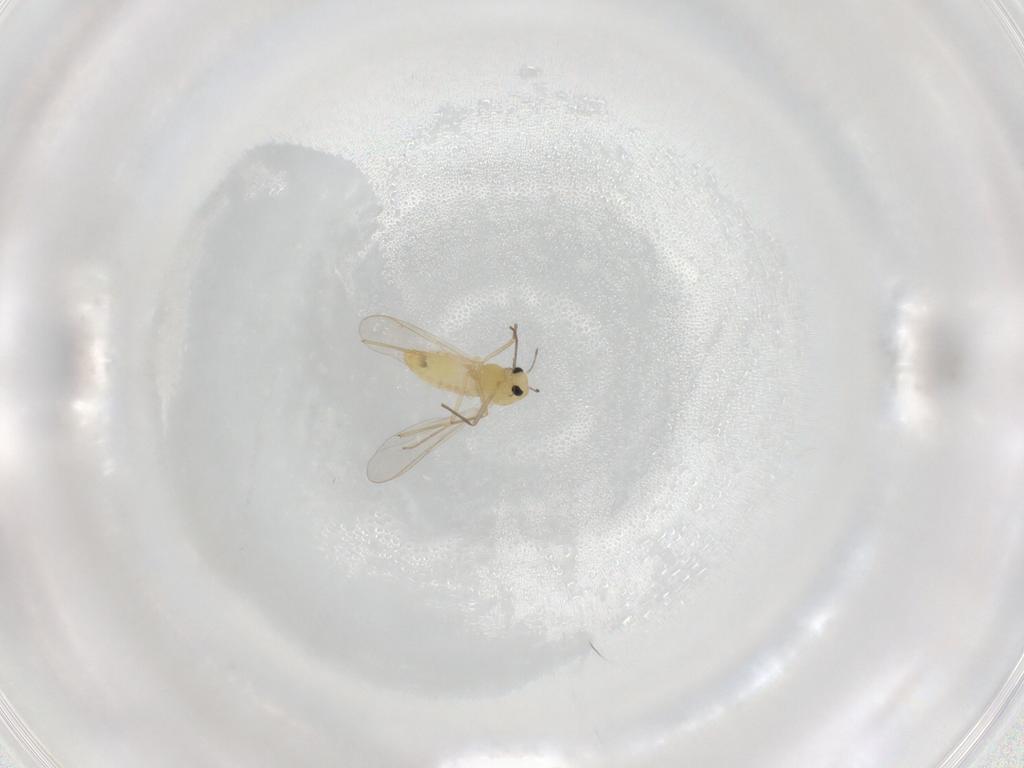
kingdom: Animalia
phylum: Arthropoda
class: Insecta
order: Diptera
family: Chironomidae
